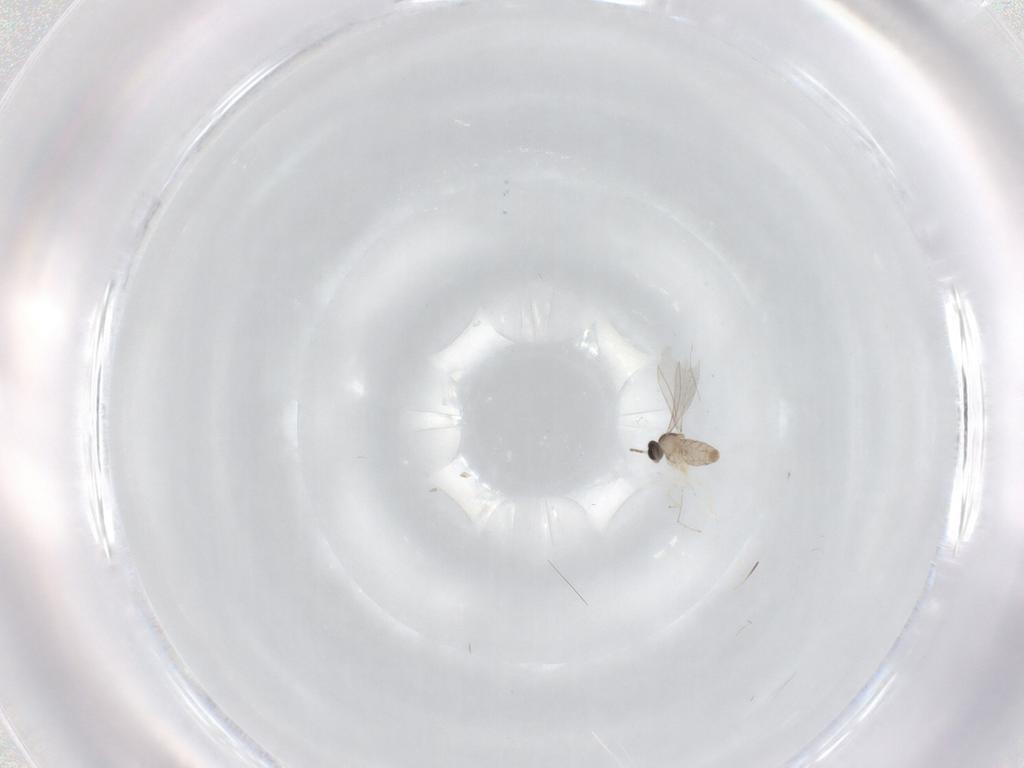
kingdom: Animalia
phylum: Arthropoda
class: Insecta
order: Diptera
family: Cecidomyiidae
